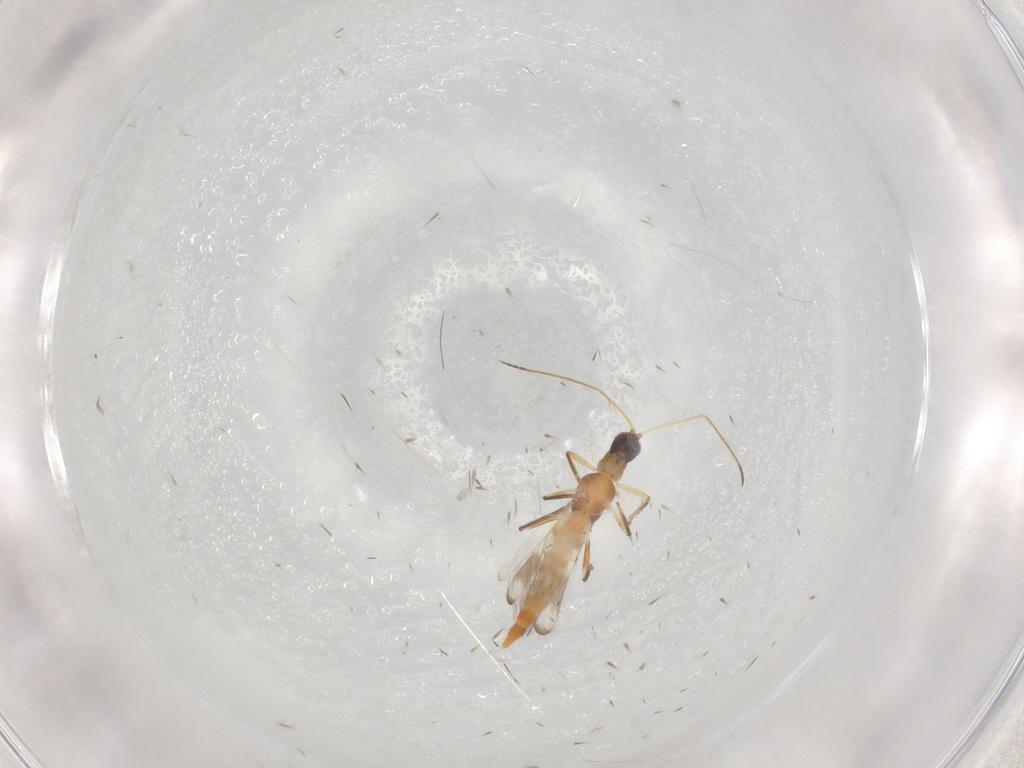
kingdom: Animalia
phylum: Arthropoda
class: Insecta
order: Thysanoptera
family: Aeolothripidae
